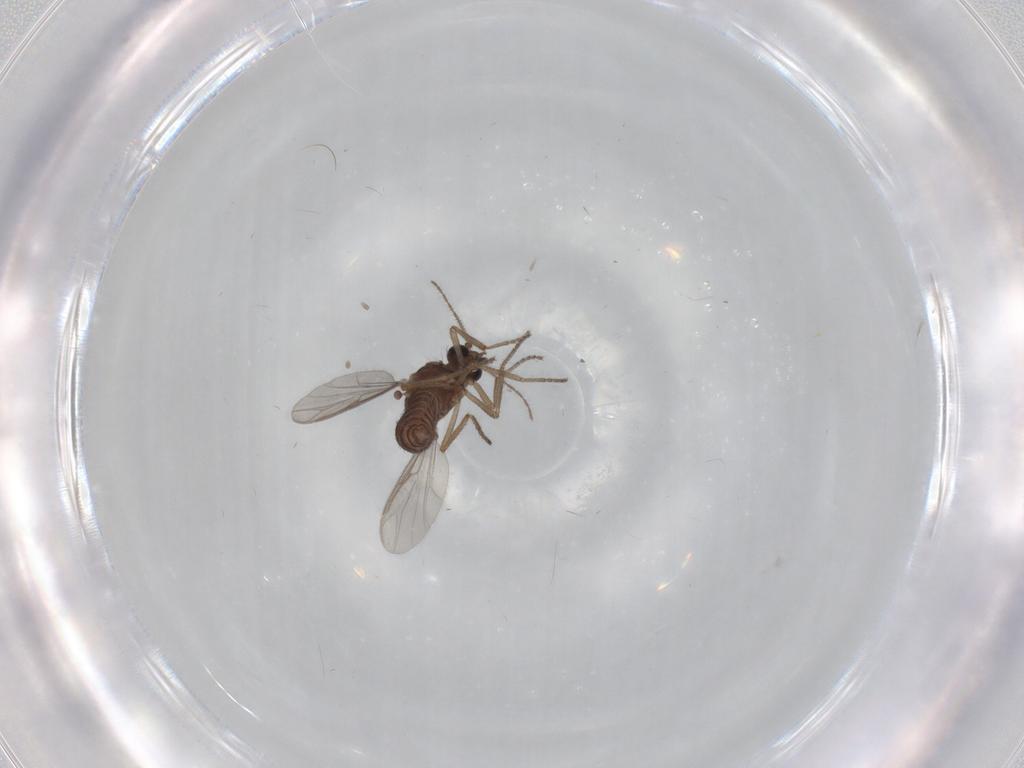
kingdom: Animalia
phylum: Arthropoda
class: Insecta
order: Diptera
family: Ceratopogonidae
